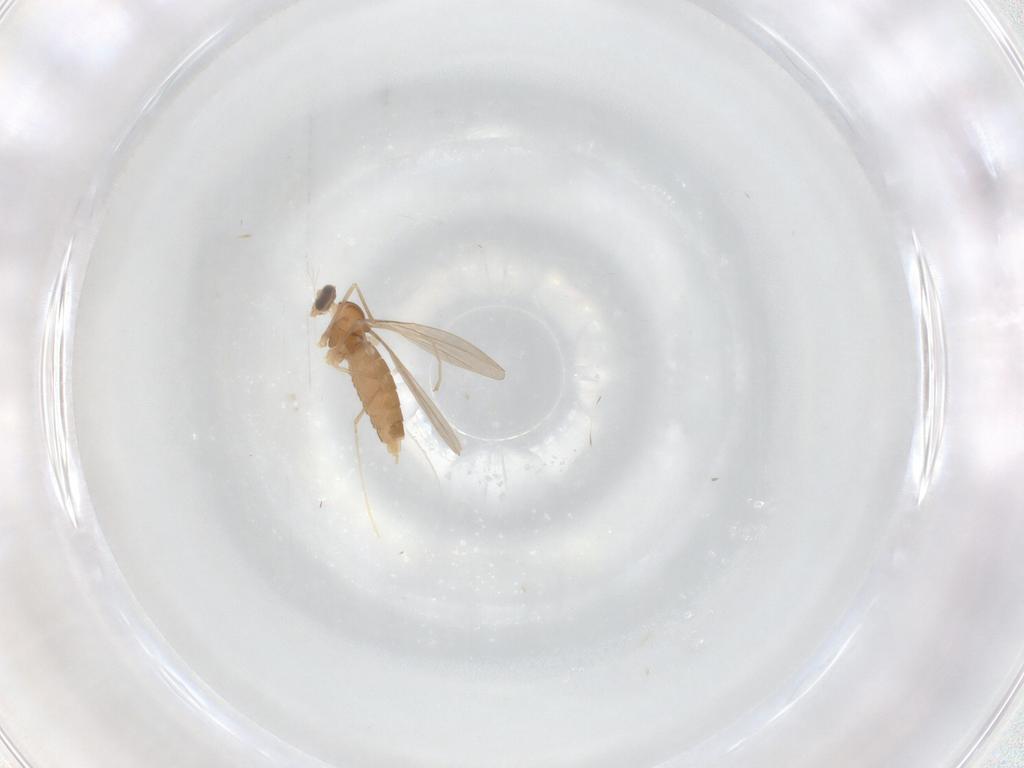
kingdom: Animalia
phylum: Arthropoda
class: Insecta
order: Diptera
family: Cecidomyiidae
